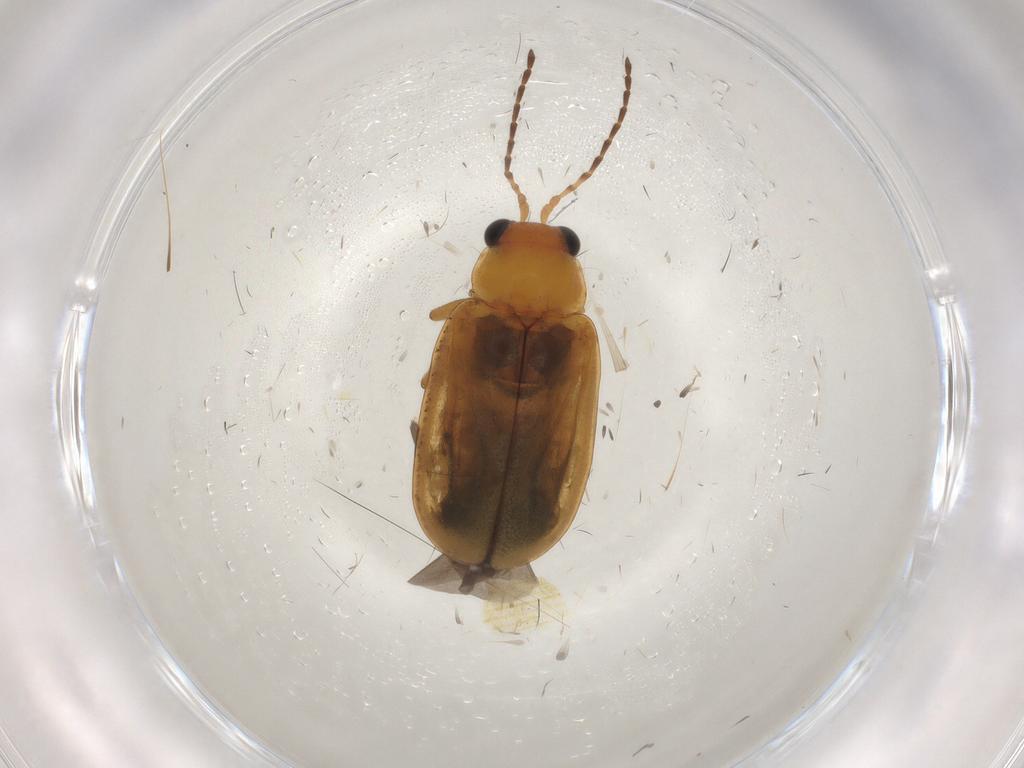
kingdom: Animalia
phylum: Arthropoda
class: Insecta
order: Coleoptera
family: Chrysomelidae
